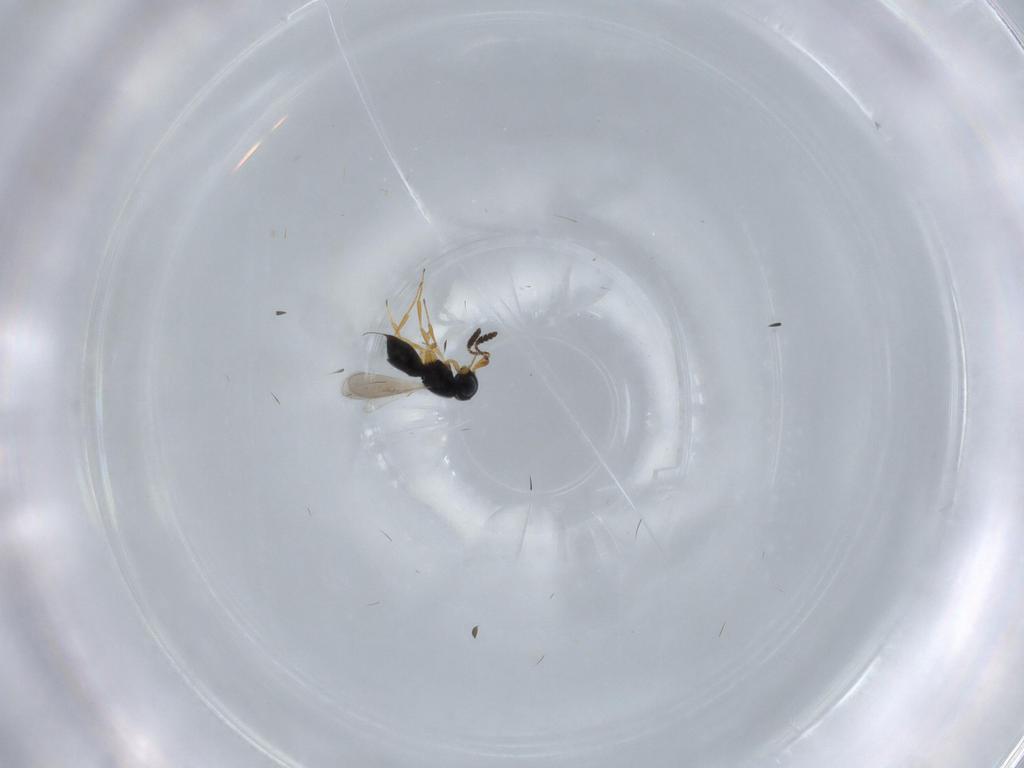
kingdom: Animalia
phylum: Arthropoda
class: Insecta
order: Hymenoptera
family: Scelionidae
